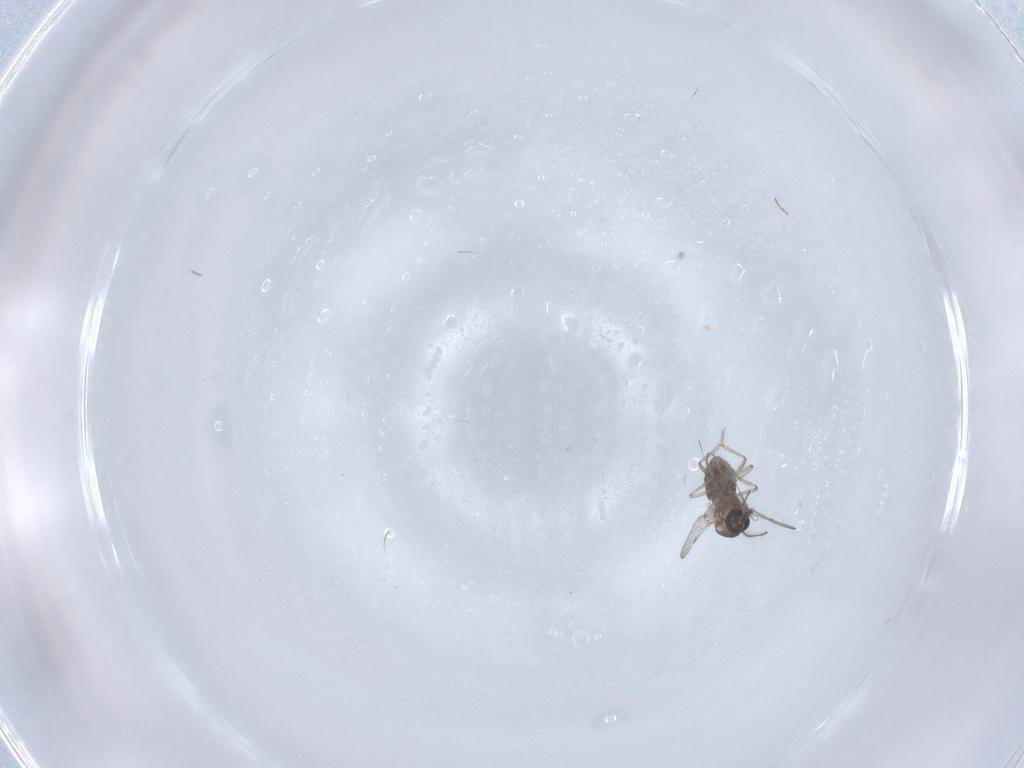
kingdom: Animalia
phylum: Arthropoda
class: Insecta
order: Diptera
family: Ceratopogonidae
